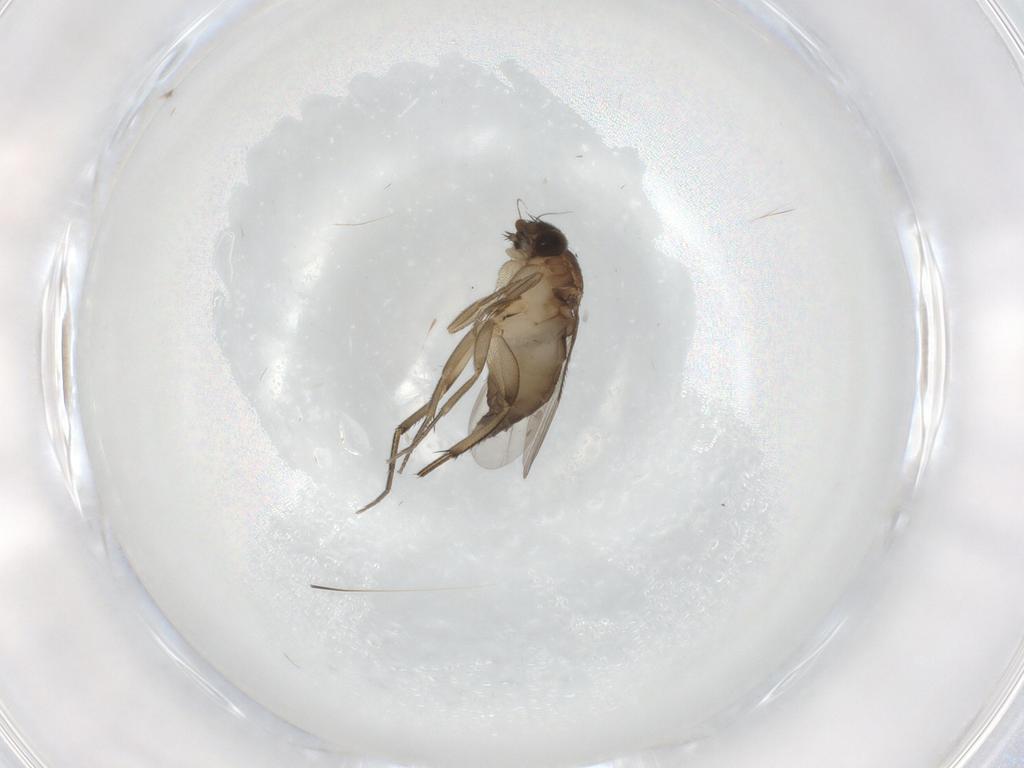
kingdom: Animalia
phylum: Arthropoda
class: Insecta
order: Diptera
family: Phoridae
